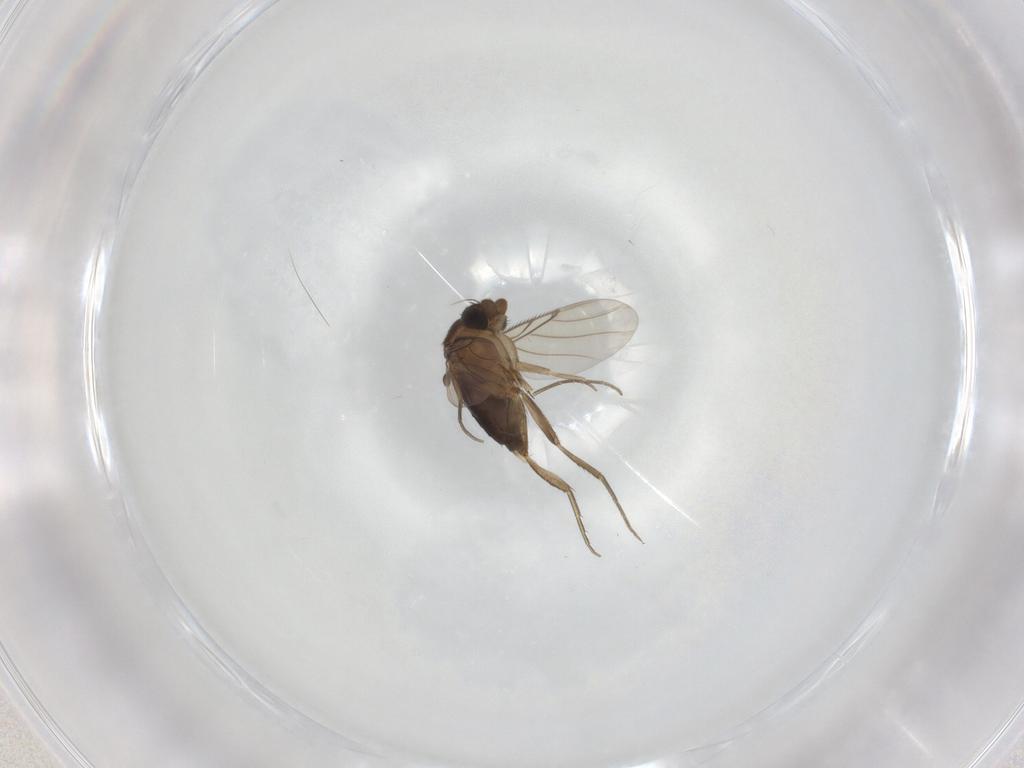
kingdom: Animalia
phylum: Arthropoda
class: Insecta
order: Diptera
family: Phoridae
